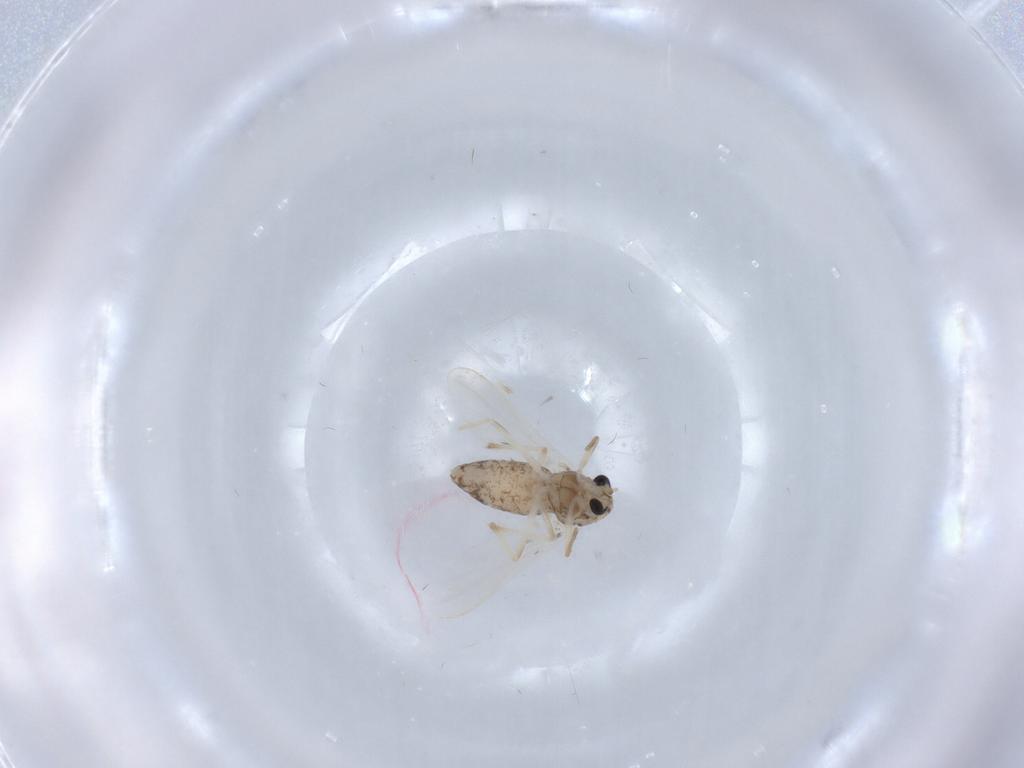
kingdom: Animalia
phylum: Arthropoda
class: Insecta
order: Diptera
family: Chironomidae
